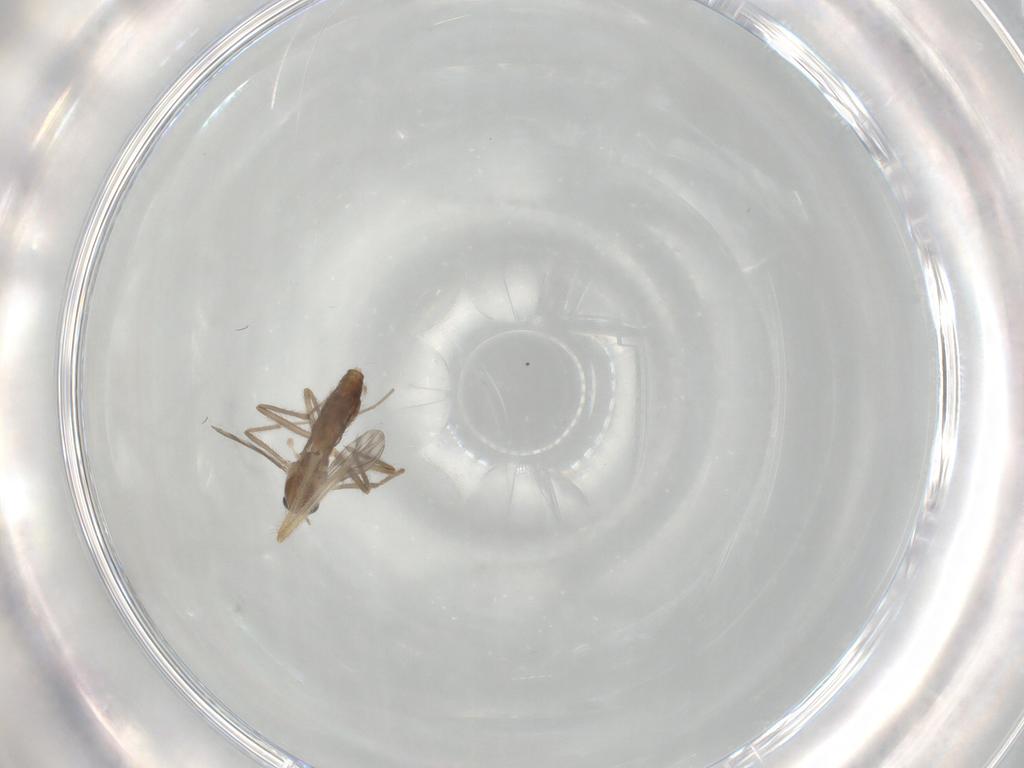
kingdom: Animalia
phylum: Arthropoda
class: Insecta
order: Diptera
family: Chironomidae
